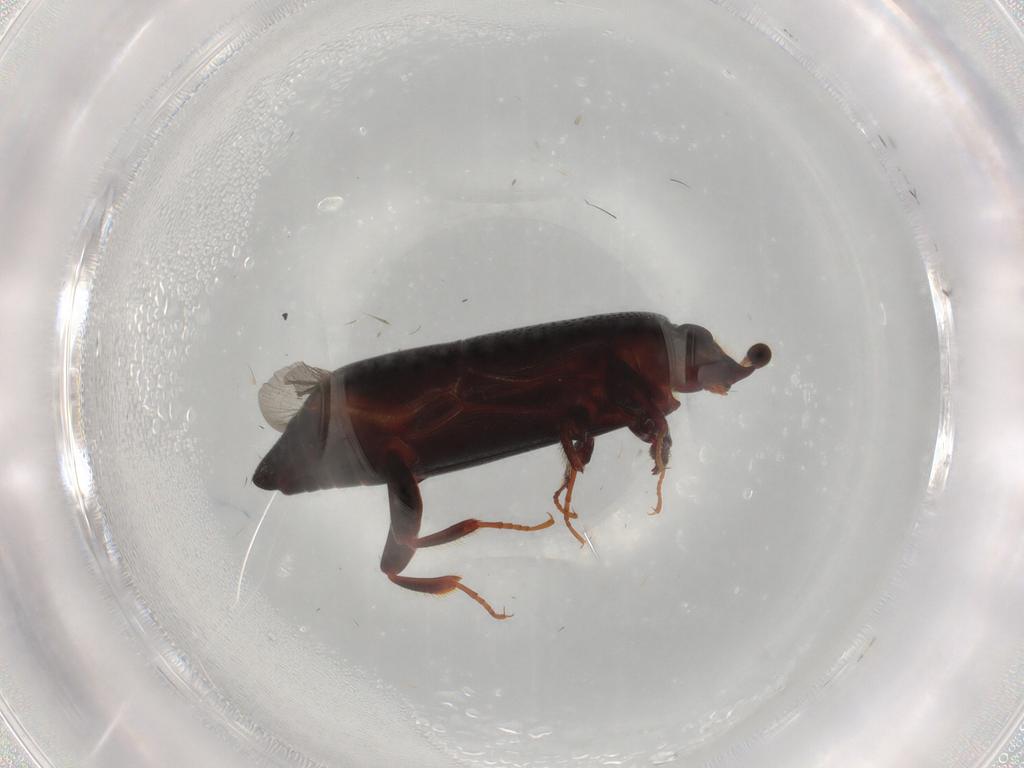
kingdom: Animalia
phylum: Arthropoda
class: Insecta
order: Coleoptera
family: Histeridae
